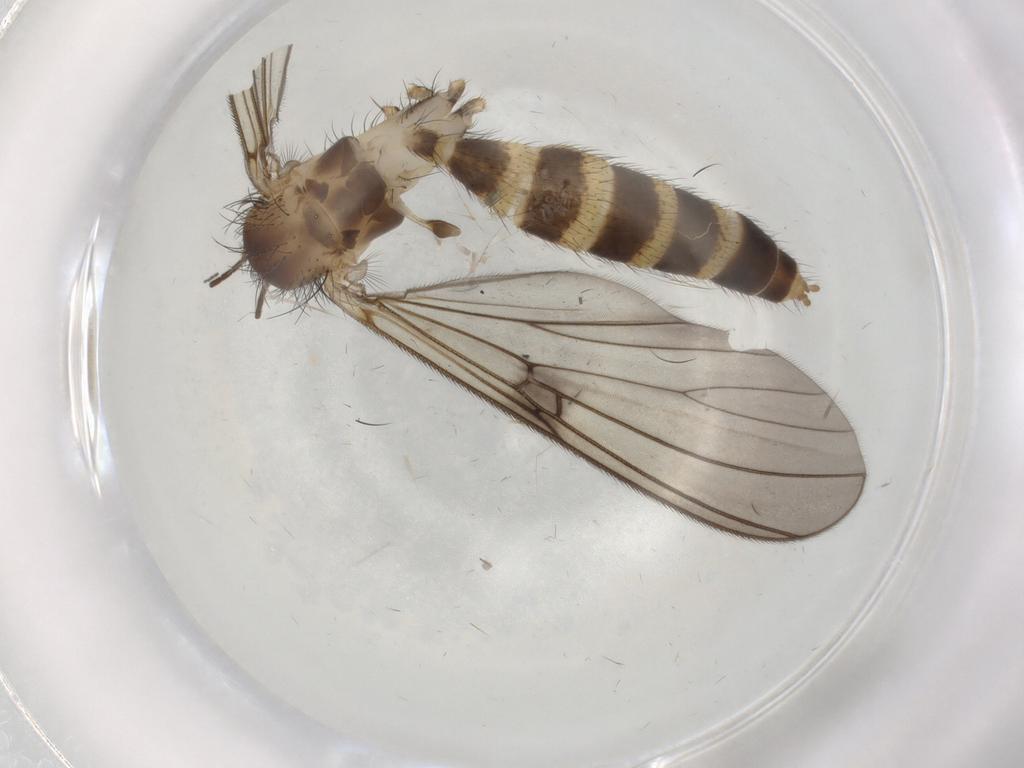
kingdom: Animalia
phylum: Arthropoda
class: Insecta
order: Diptera
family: Mycetophilidae
